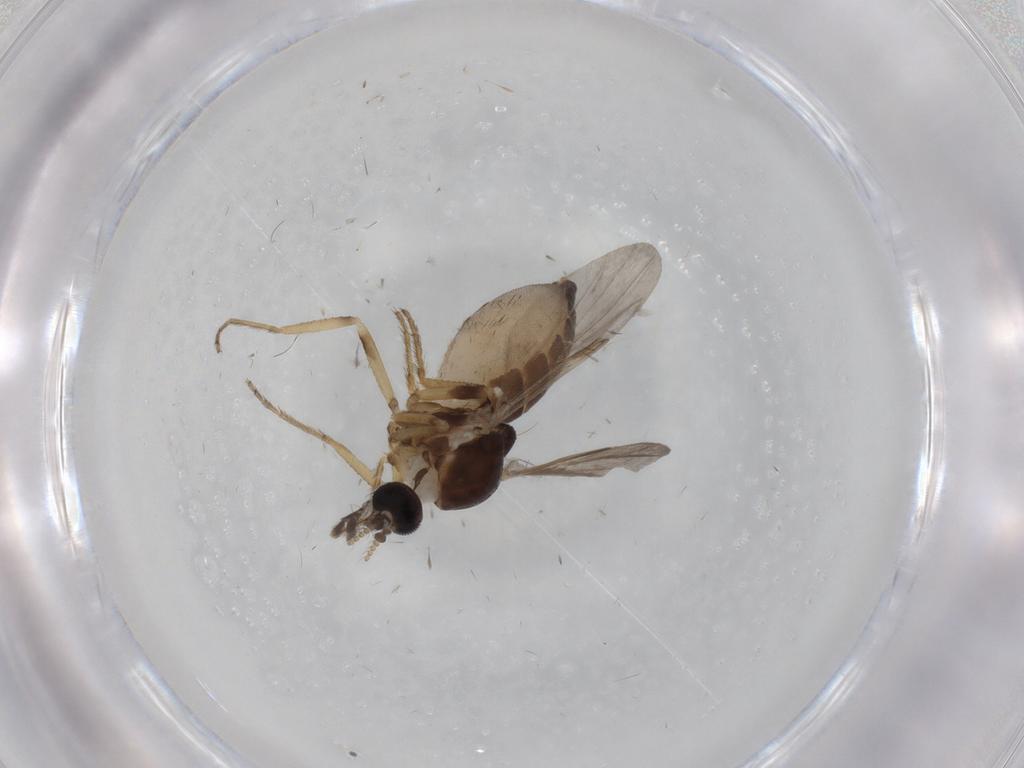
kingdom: Animalia
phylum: Arthropoda
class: Insecta
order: Diptera
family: Ceratopogonidae
